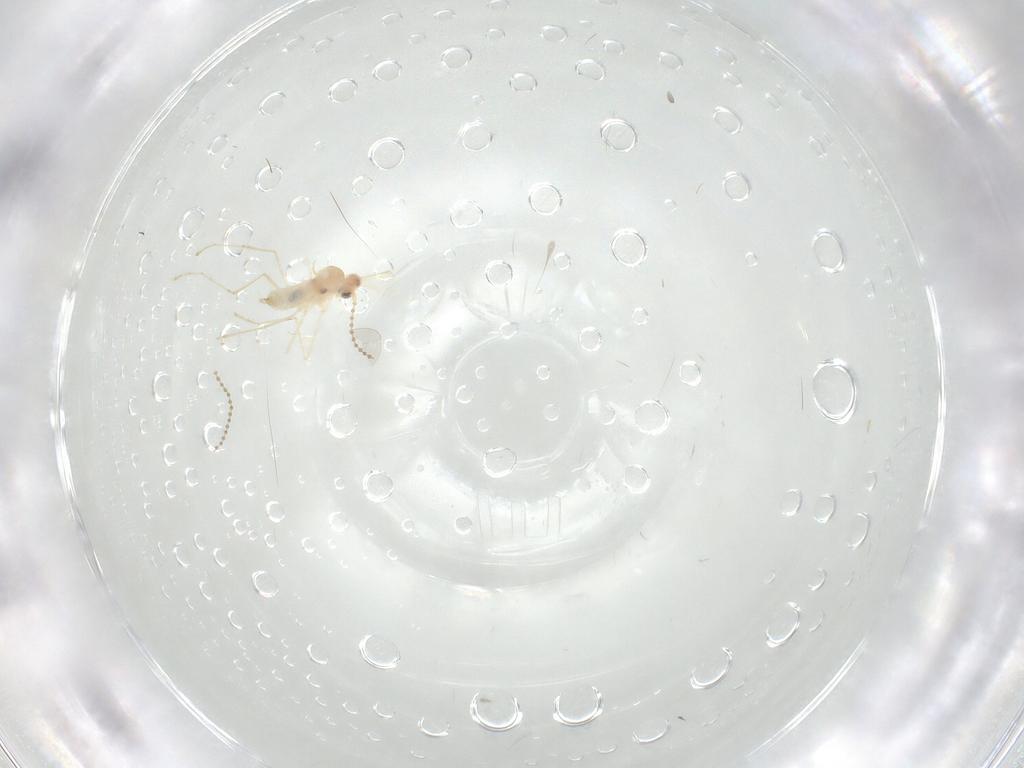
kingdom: Animalia
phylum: Arthropoda
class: Insecta
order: Diptera
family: Cecidomyiidae
